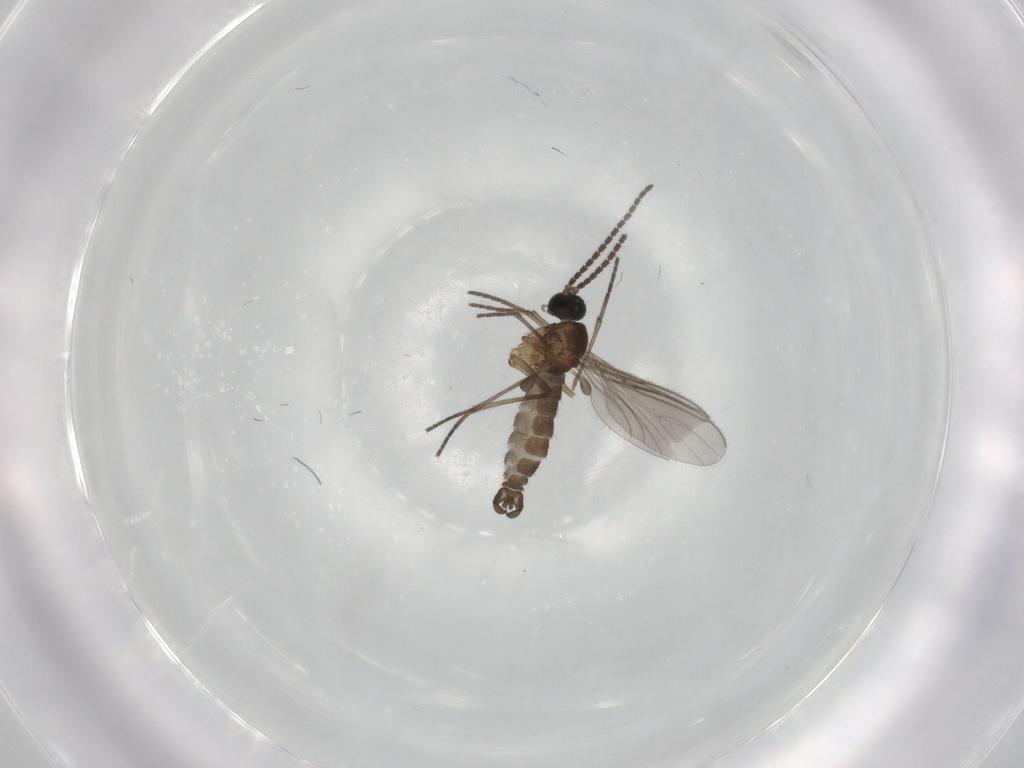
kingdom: Animalia
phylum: Arthropoda
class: Insecta
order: Diptera
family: Sciaridae
